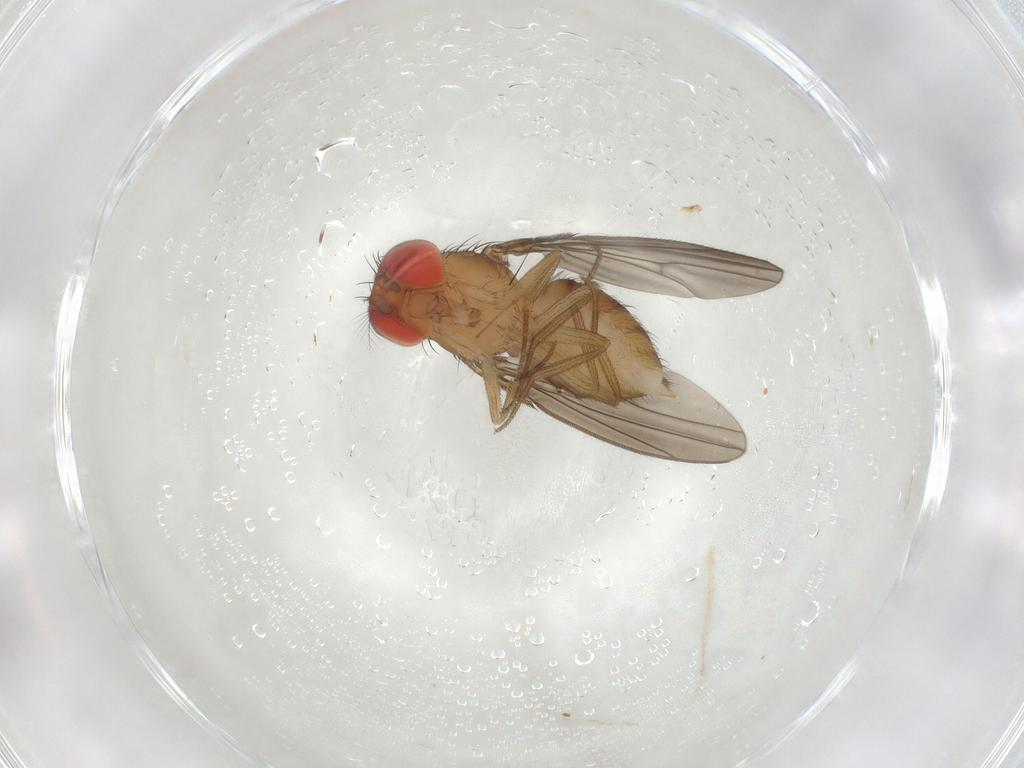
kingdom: Animalia
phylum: Arthropoda
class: Insecta
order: Diptera
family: Drosophilidae
